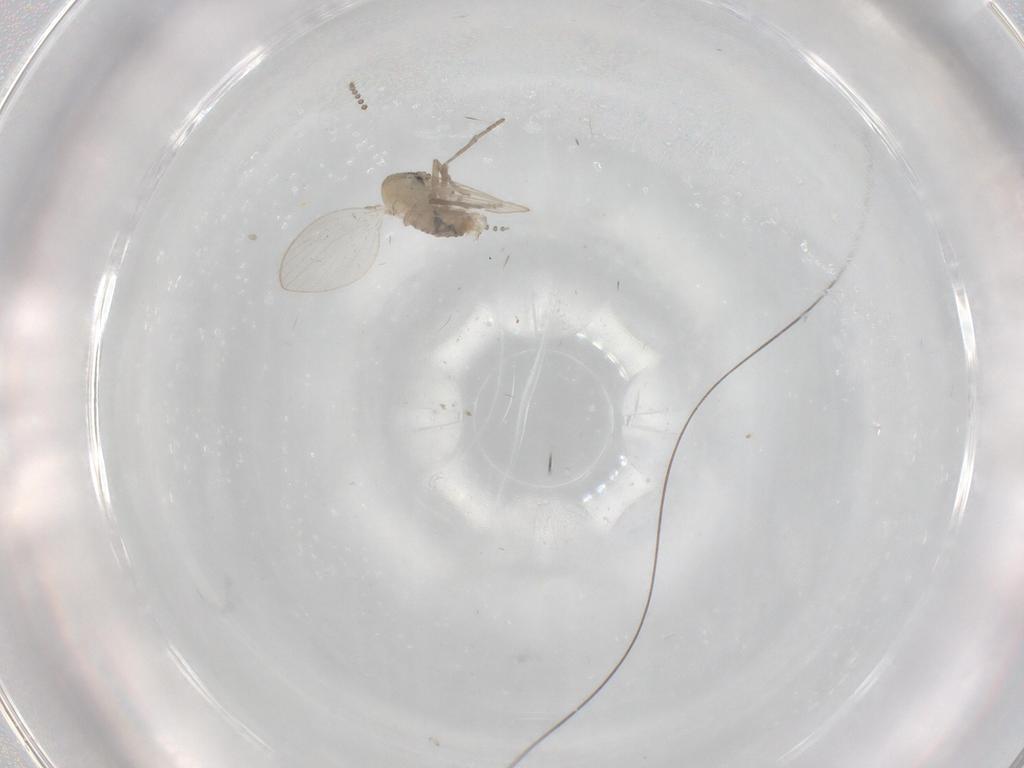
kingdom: Animalia
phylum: Arthropoda
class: Insecta
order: Diptera
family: Psychodidae
